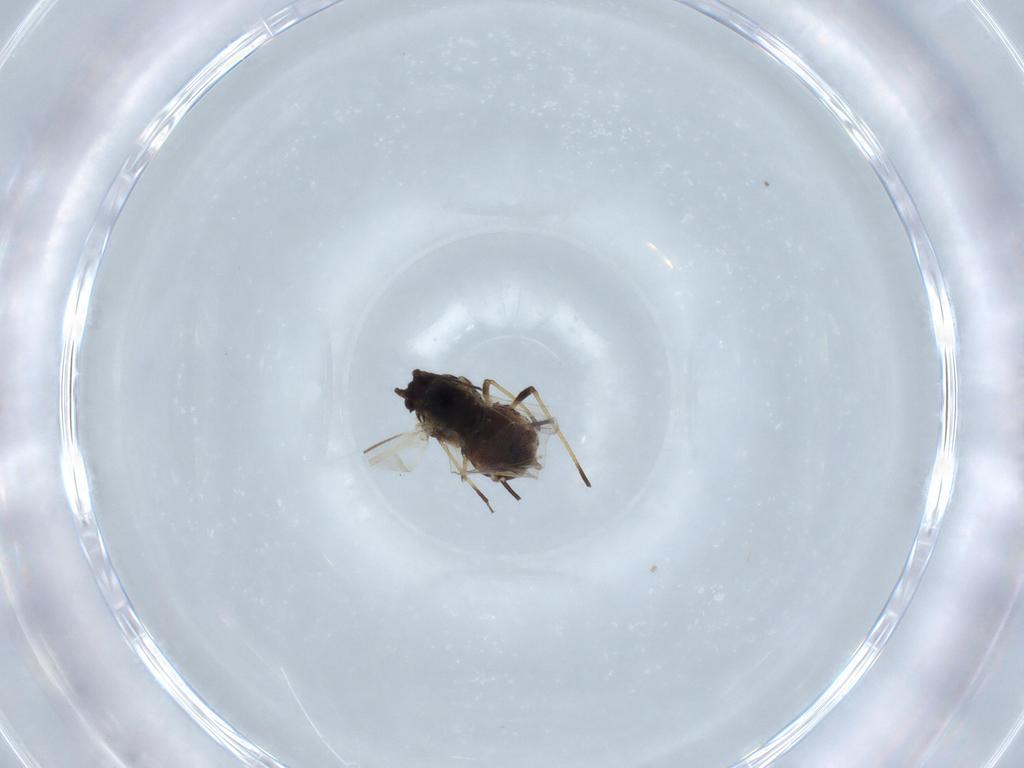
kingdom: Animalia
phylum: Arthropoda
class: Insecta
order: Hemiptera
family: Aphididae
